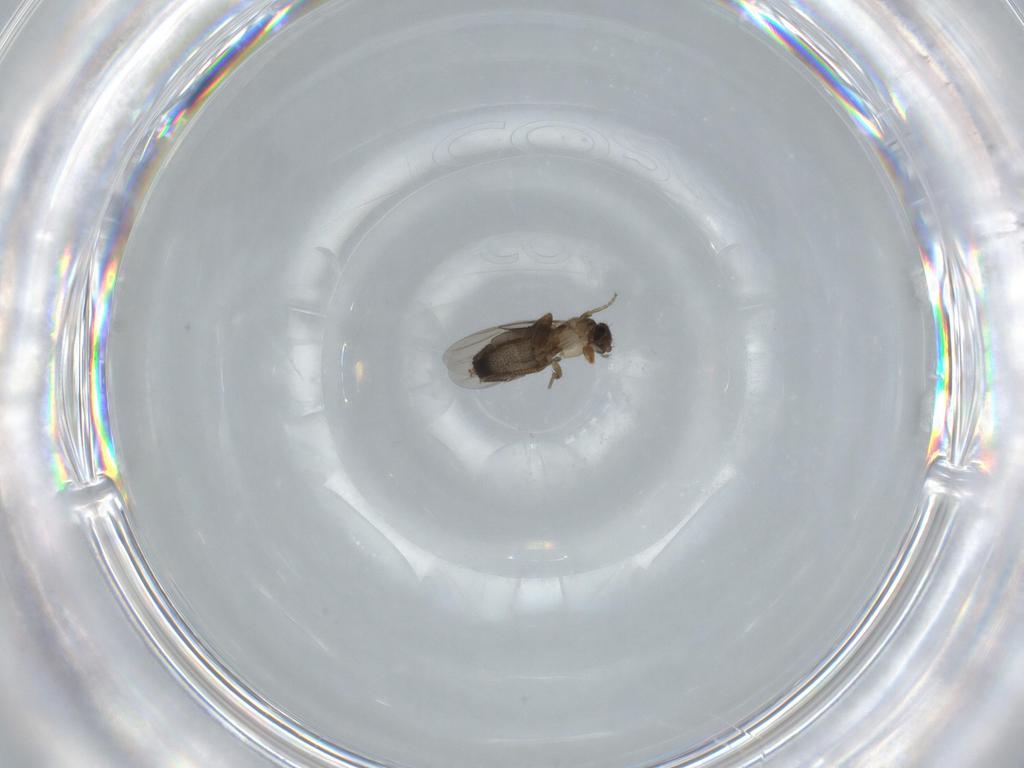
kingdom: Animalia
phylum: Arthropoda
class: Insecta
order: Diptera
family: Phoridae
